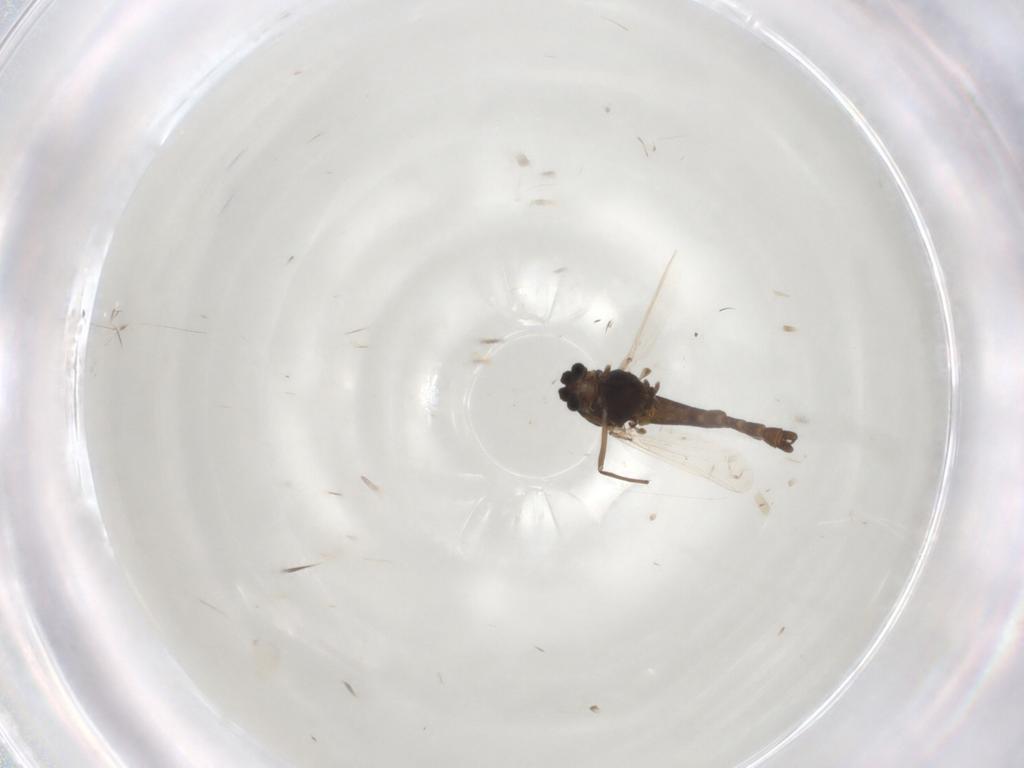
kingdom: Animalia
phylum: Arthropoda
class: Insecta
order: Diptera
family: Chironomidae
